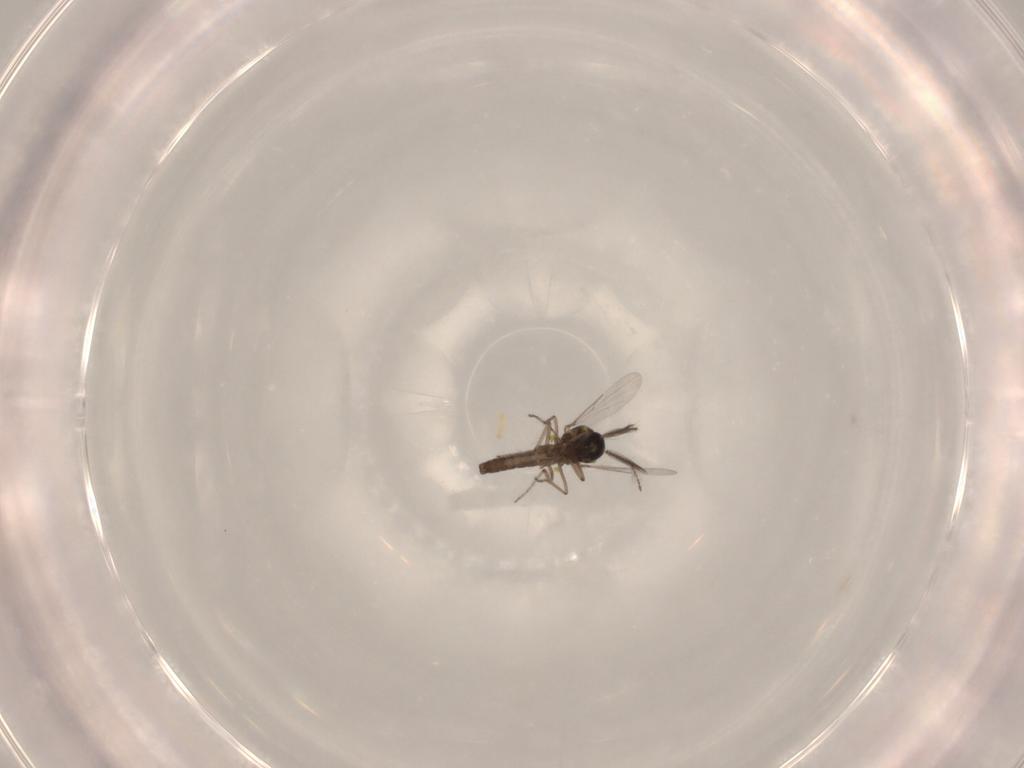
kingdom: Animalia
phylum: Arthropoda
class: Insecta
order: Diptera
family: Ceratopogonidae
